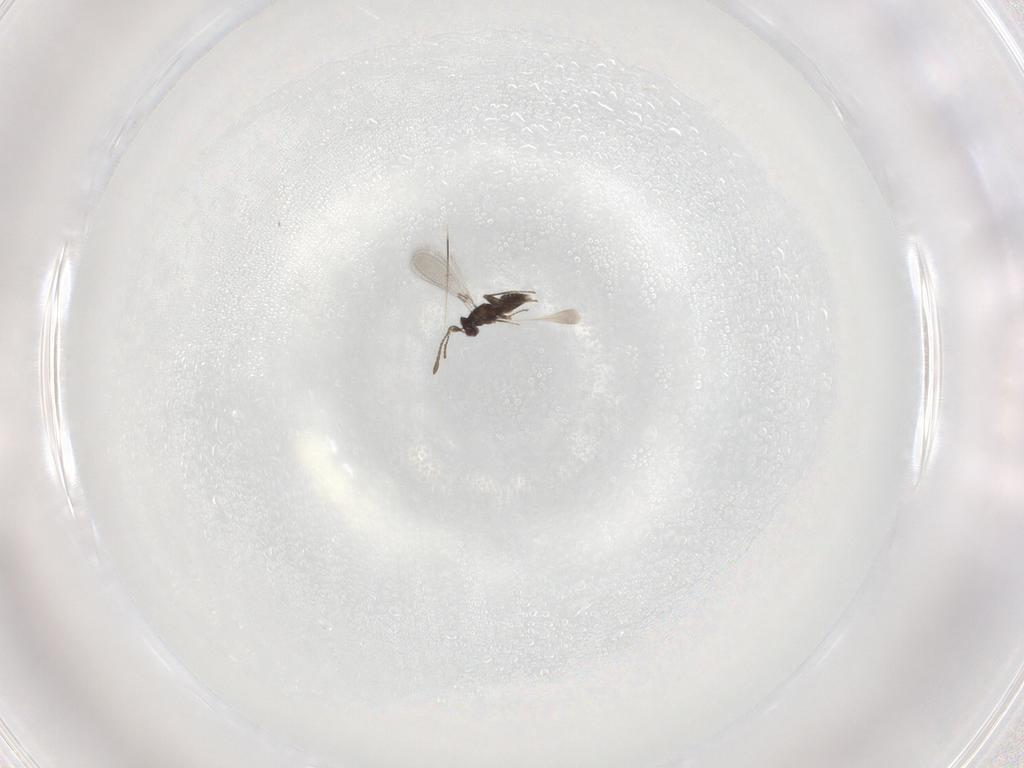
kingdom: Animalia
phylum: Arthropoda
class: Insecta
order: Hymenoptera
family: Mymaridae
